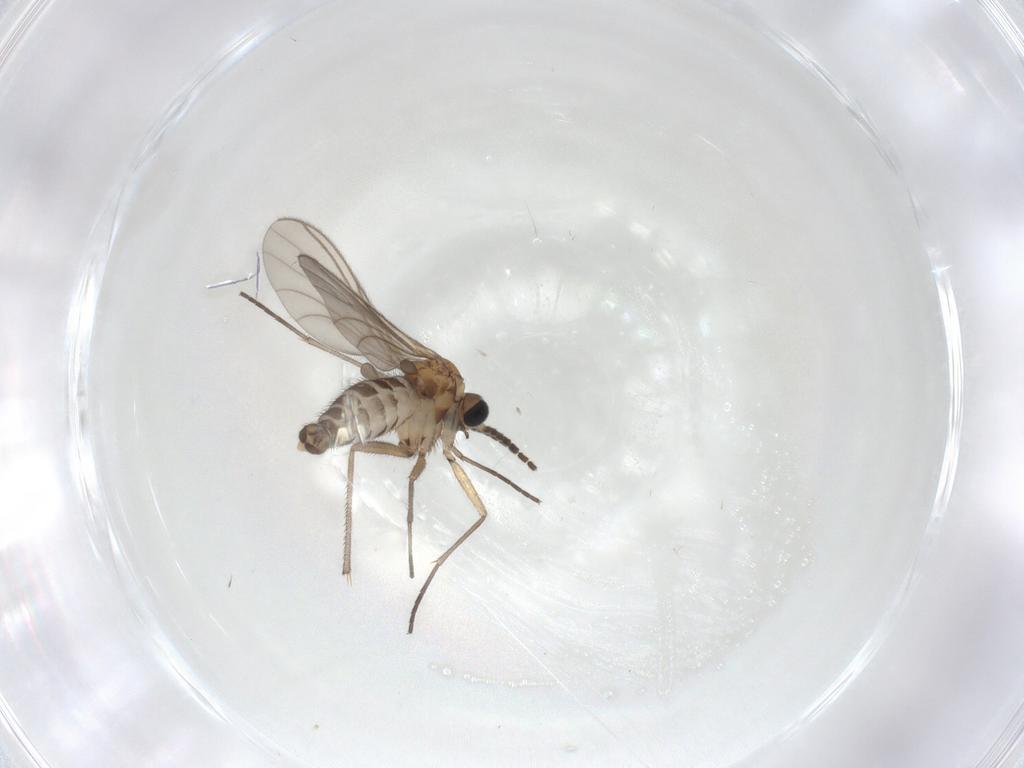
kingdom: Animalia
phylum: Arthropoda
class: Insecta
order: Diptera
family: Sciaridae
